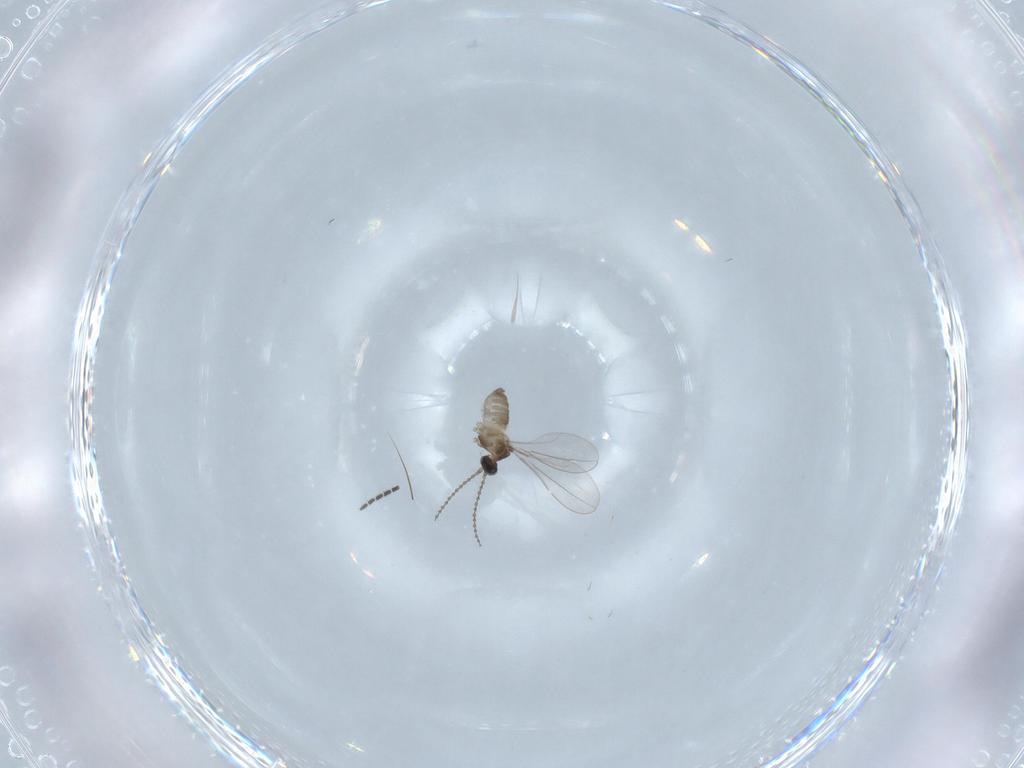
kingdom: Animalia
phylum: Arthropoda
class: Insecta
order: Diptera
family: Cecidomyiidae
